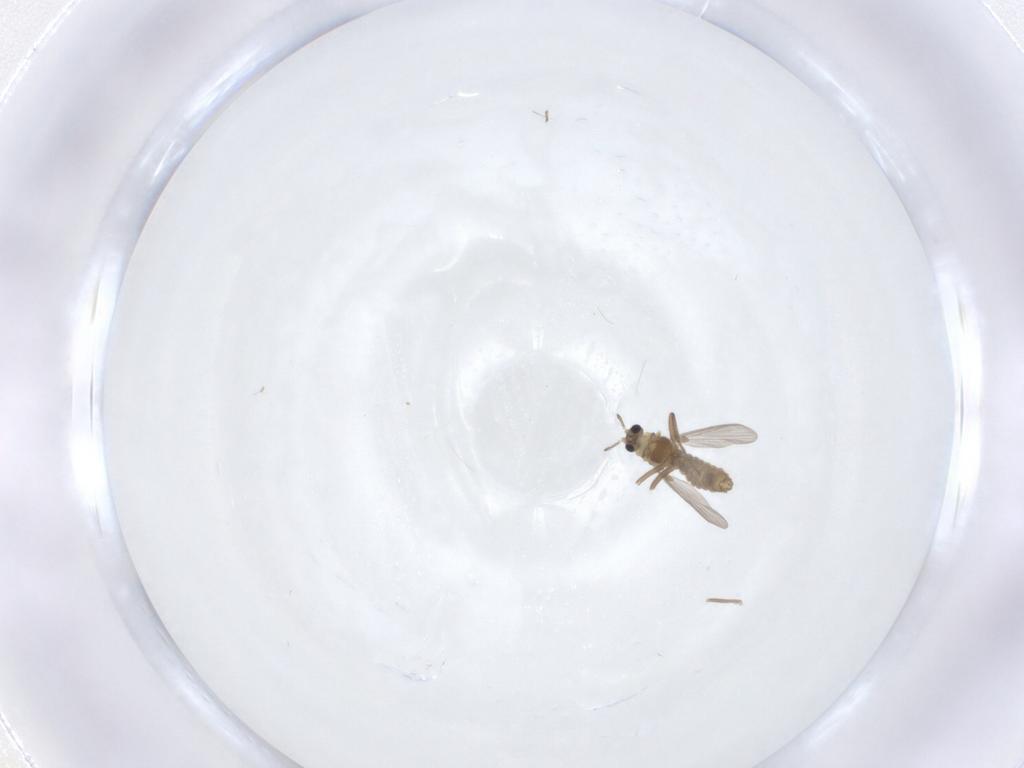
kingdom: Animalia
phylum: Arthropoda
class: Insecta
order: Diptera
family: Chironomidae
